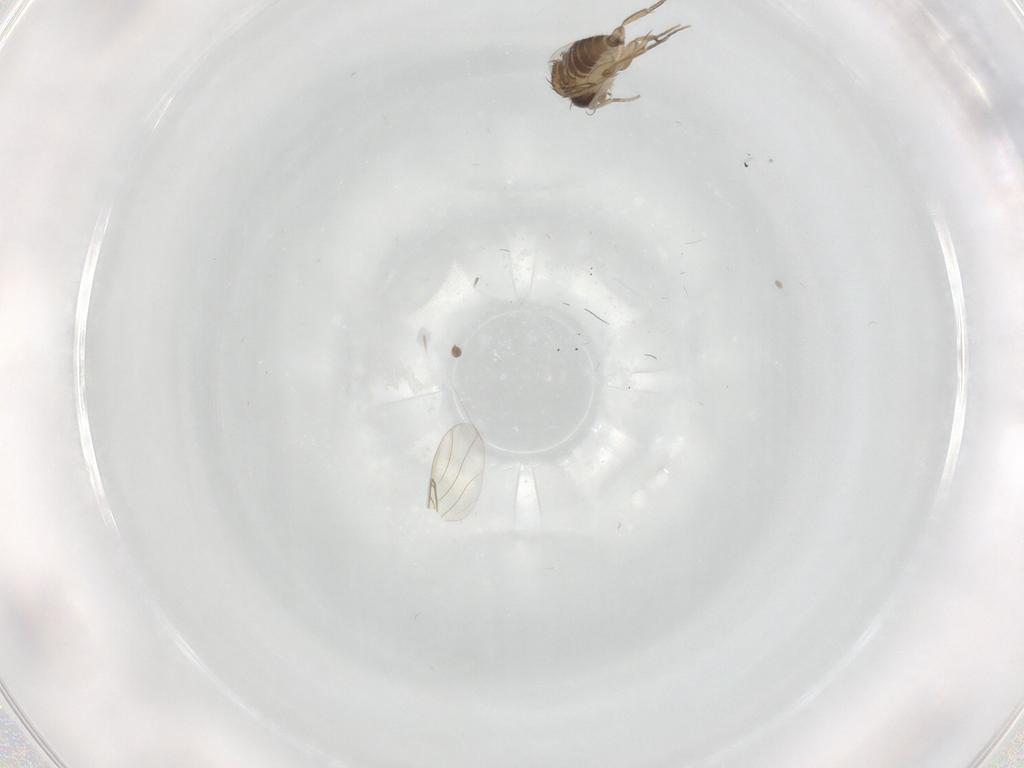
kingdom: Animalia
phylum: Arthropoda
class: Insecta
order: Diptera
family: Phoridae
